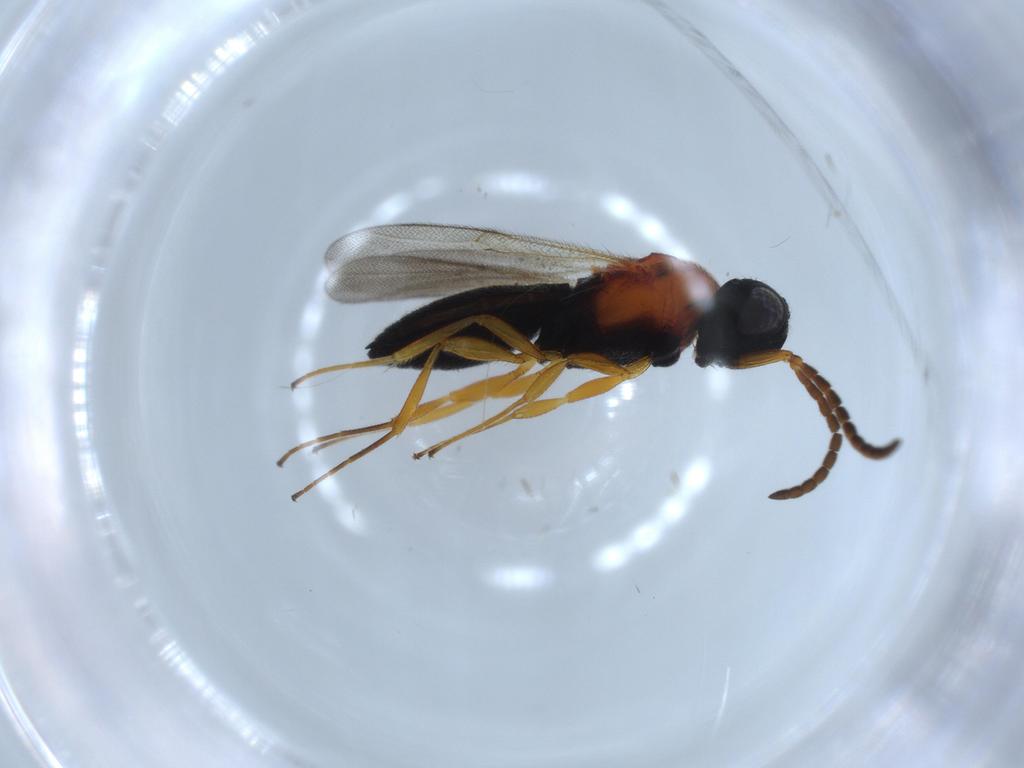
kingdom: Animalia
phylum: Arthropoda
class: Insecta
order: Hymenoptera
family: Scelionidae
